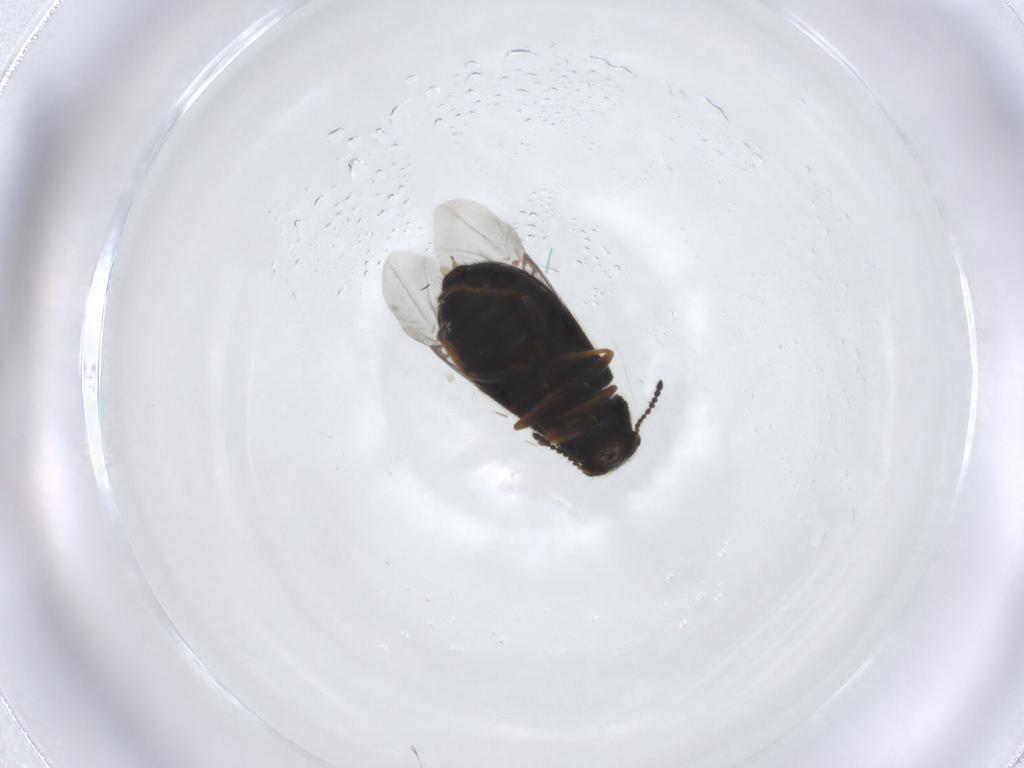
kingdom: Animalia
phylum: Arthropoda
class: Insecta
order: Coleoptera
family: Melyridae
